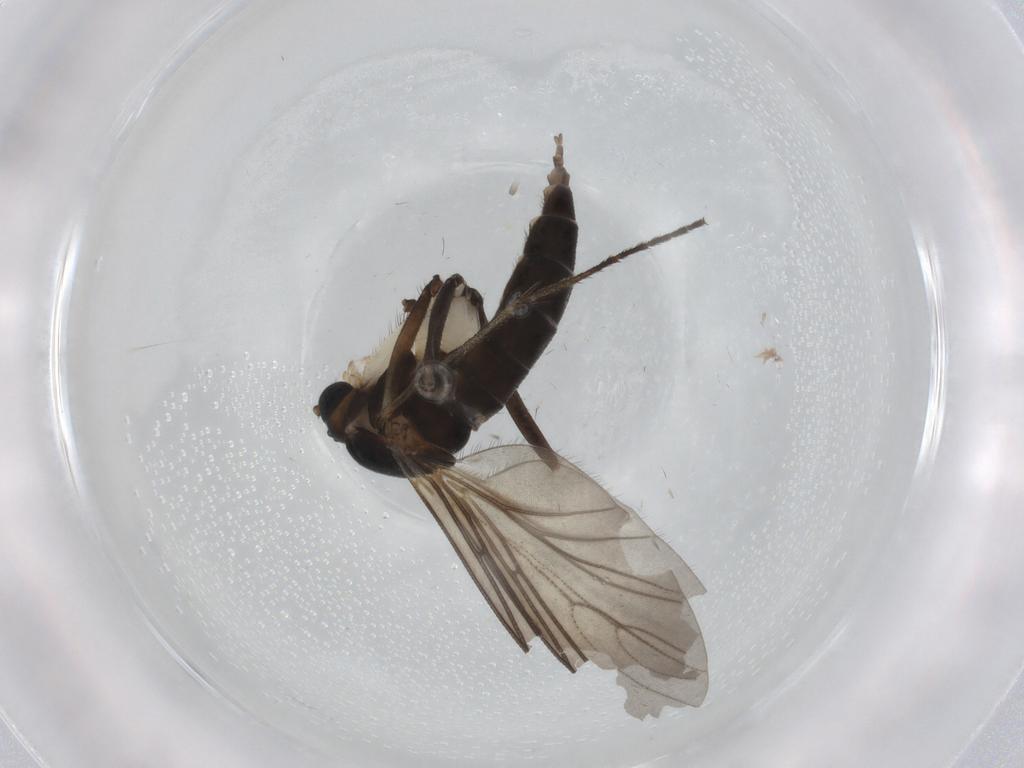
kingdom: Animalia
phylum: Arthropoda
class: Insecta
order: Diptera
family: Sciaridae
